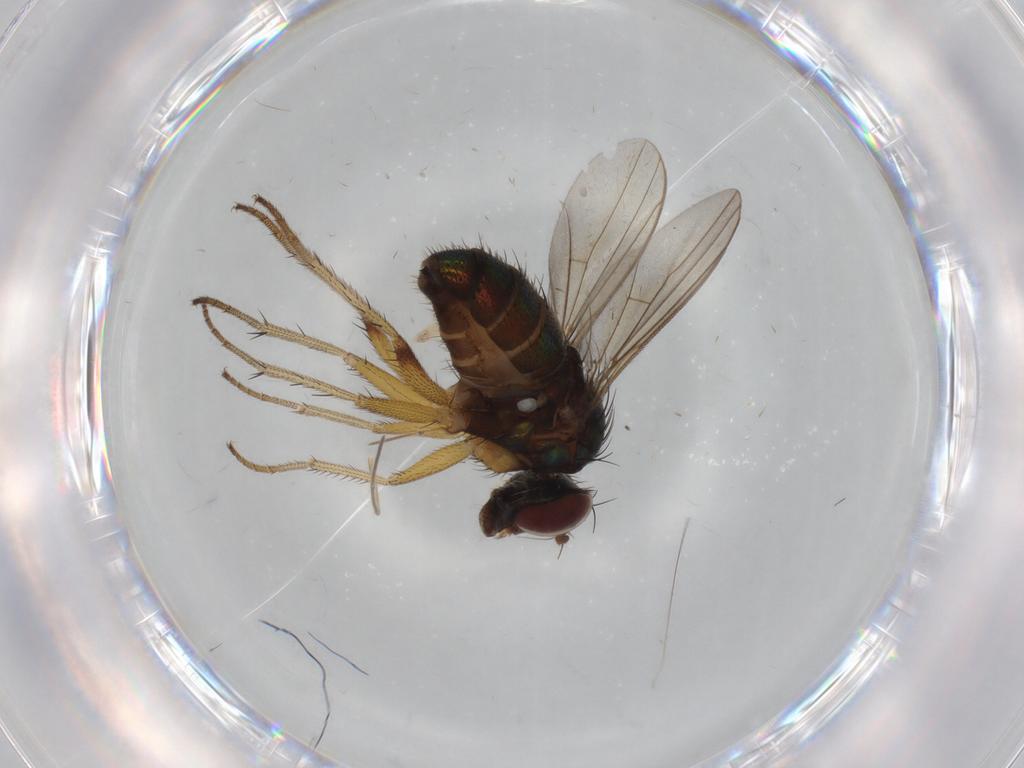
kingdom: Animalia
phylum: Arthropoda
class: Insecta
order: Diptera
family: Dolichopodidae
